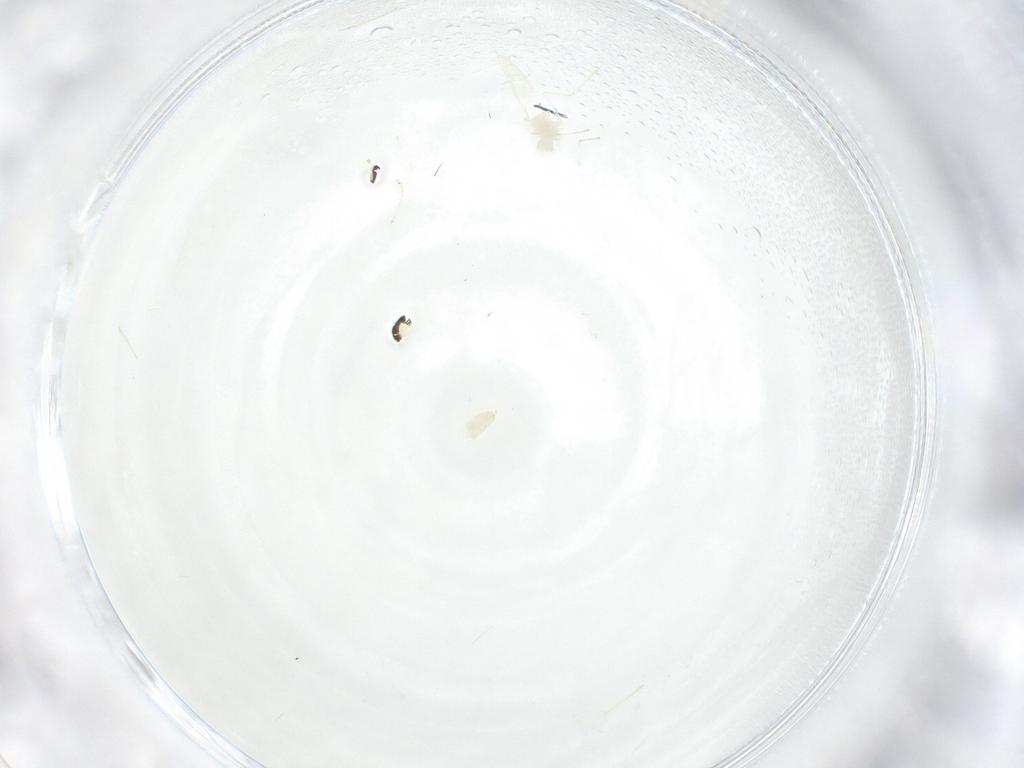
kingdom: Animalia
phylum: Arthropoda
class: Insecta
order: Diptera
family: Cecidomyiidae
